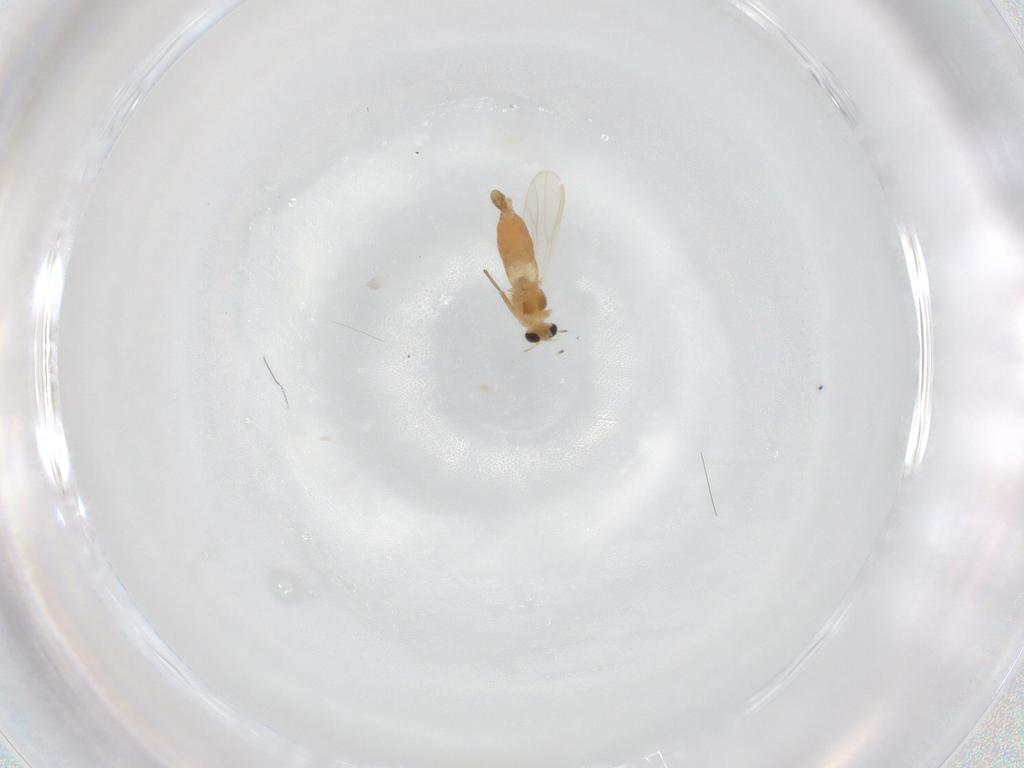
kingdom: Animalia
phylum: Arthropoda
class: Insecta
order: Diptera
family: Chironomidae
